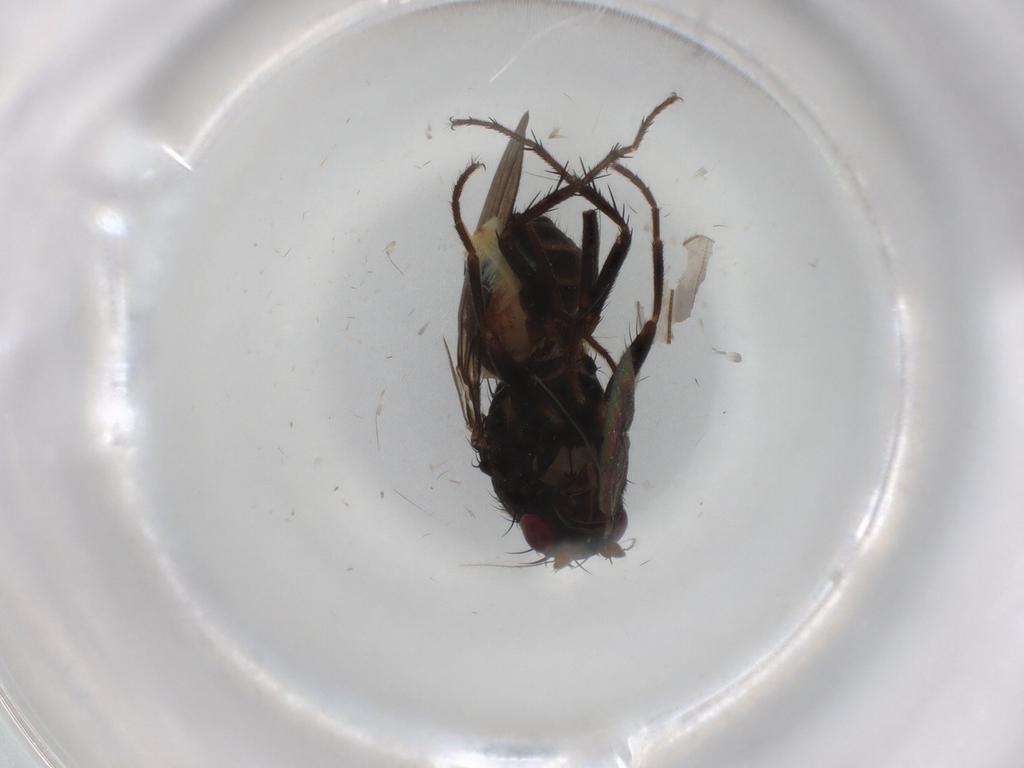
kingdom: Animalia
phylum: Arthropoda
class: Insecta
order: Diptera
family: Sphaeroceridae
